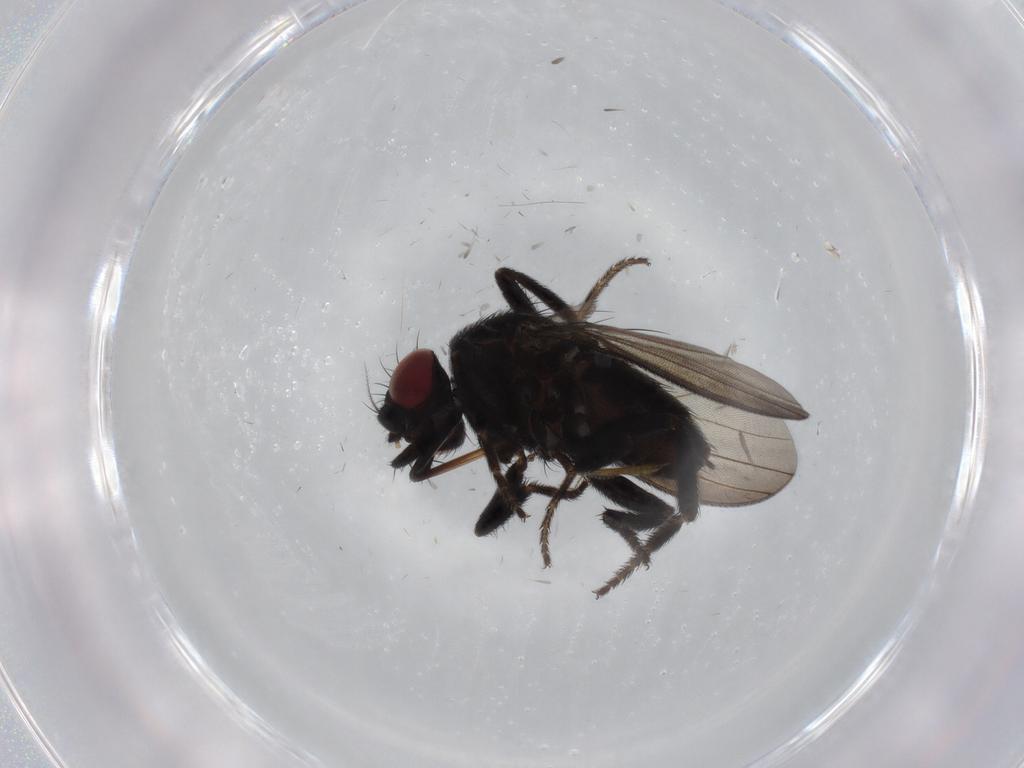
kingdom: Animalia
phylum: Arthropoda
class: Insecta
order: Diptera
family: Milichiidae
